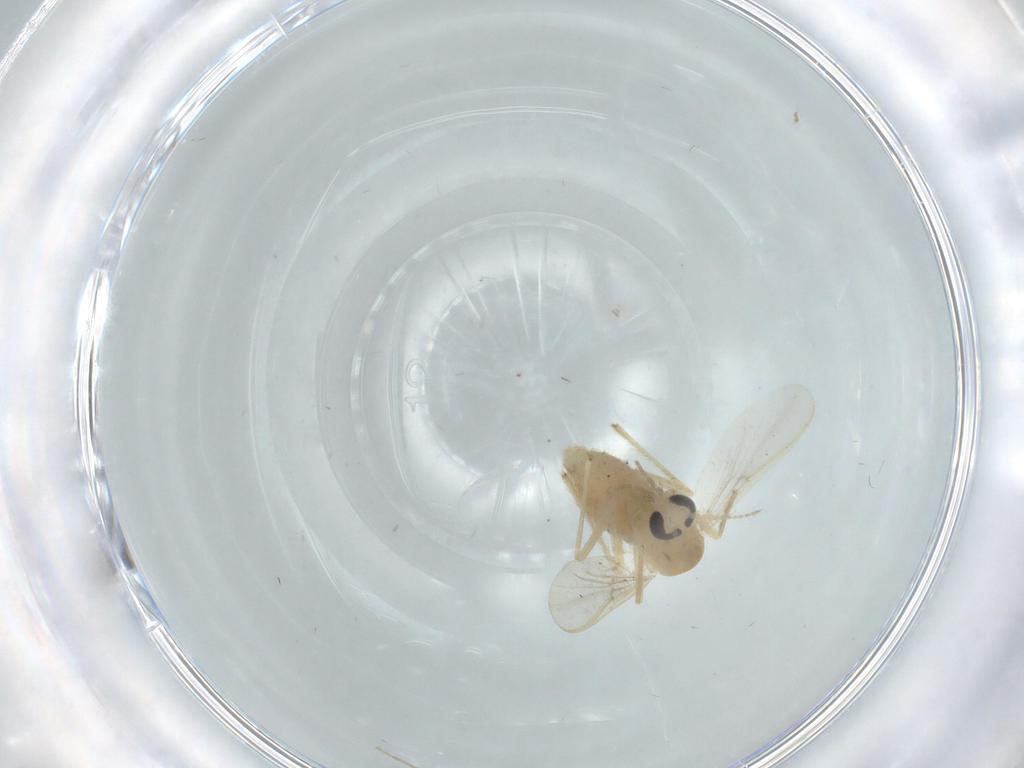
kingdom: Animalia
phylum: Arthropoda
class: Insecta
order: Diptera
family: Chironomidae
